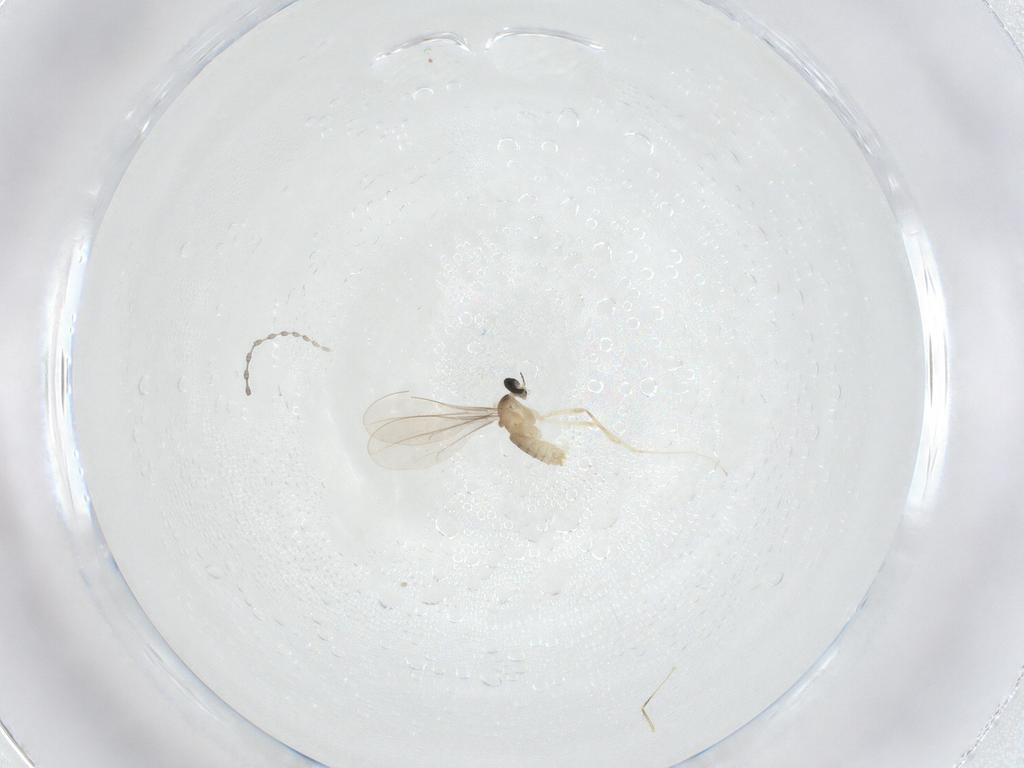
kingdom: Animalia
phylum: Arthropoda
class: Insecta
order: Diptera
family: Cecidomyiidae
